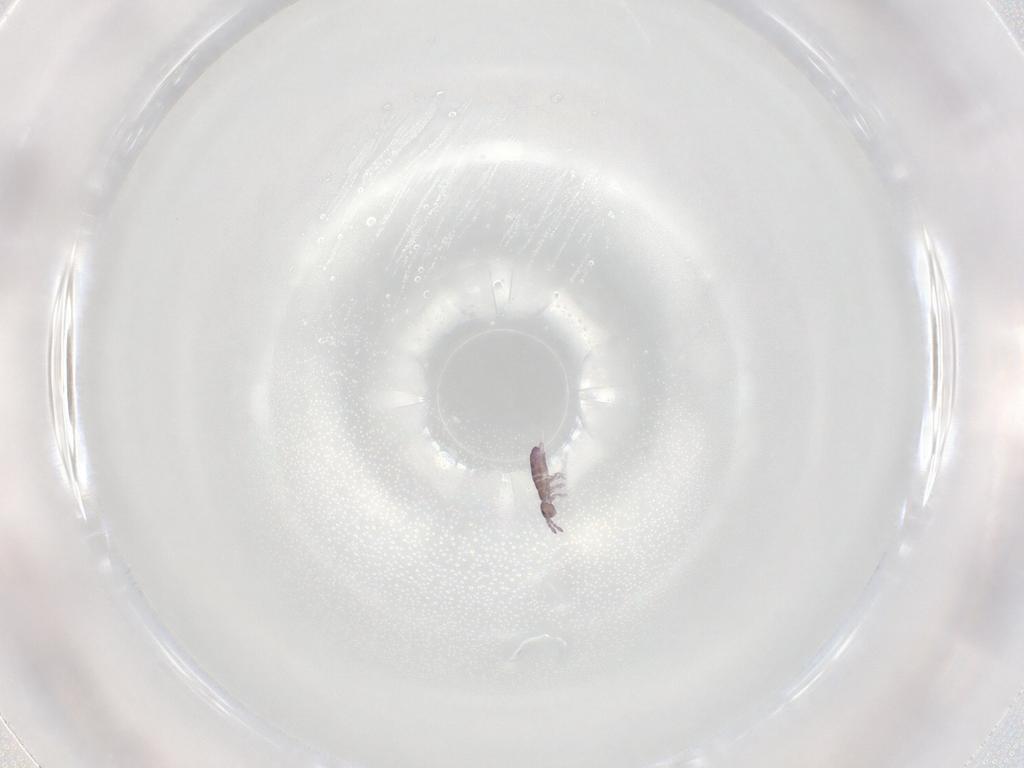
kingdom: Animalia
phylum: Arthropoda
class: Collembola
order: Entomobryomorpha
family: Isotomidae
